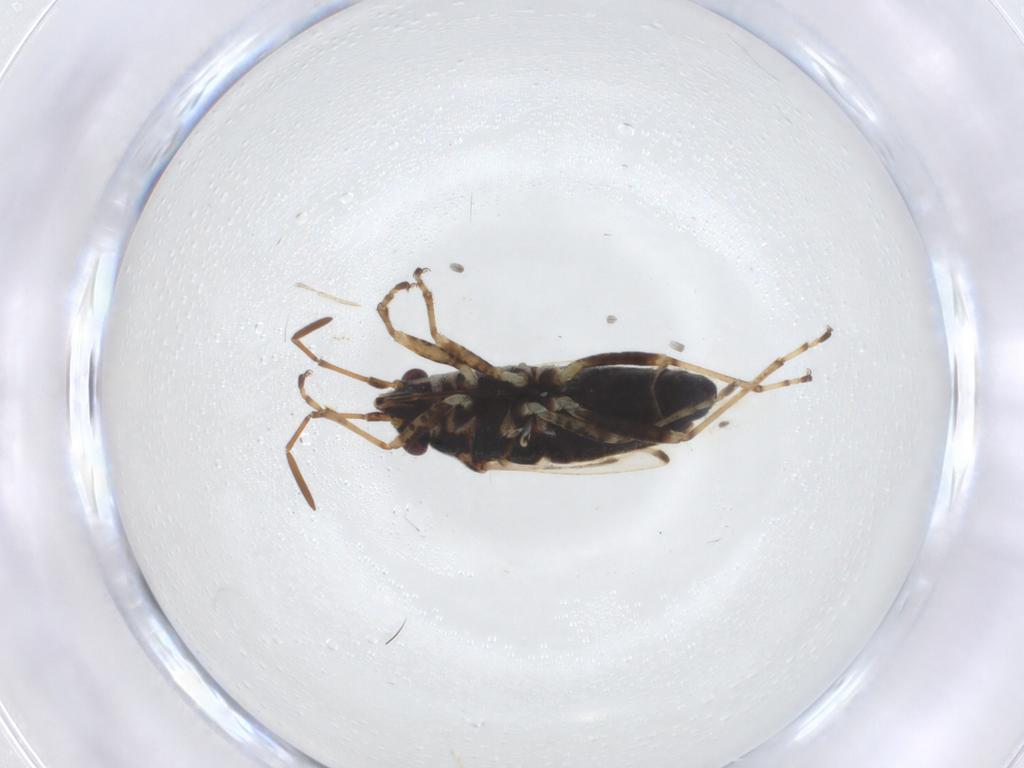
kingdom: Animalia
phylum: Arthropoda
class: Insecta
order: Hemiptera
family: Lygaeidae
